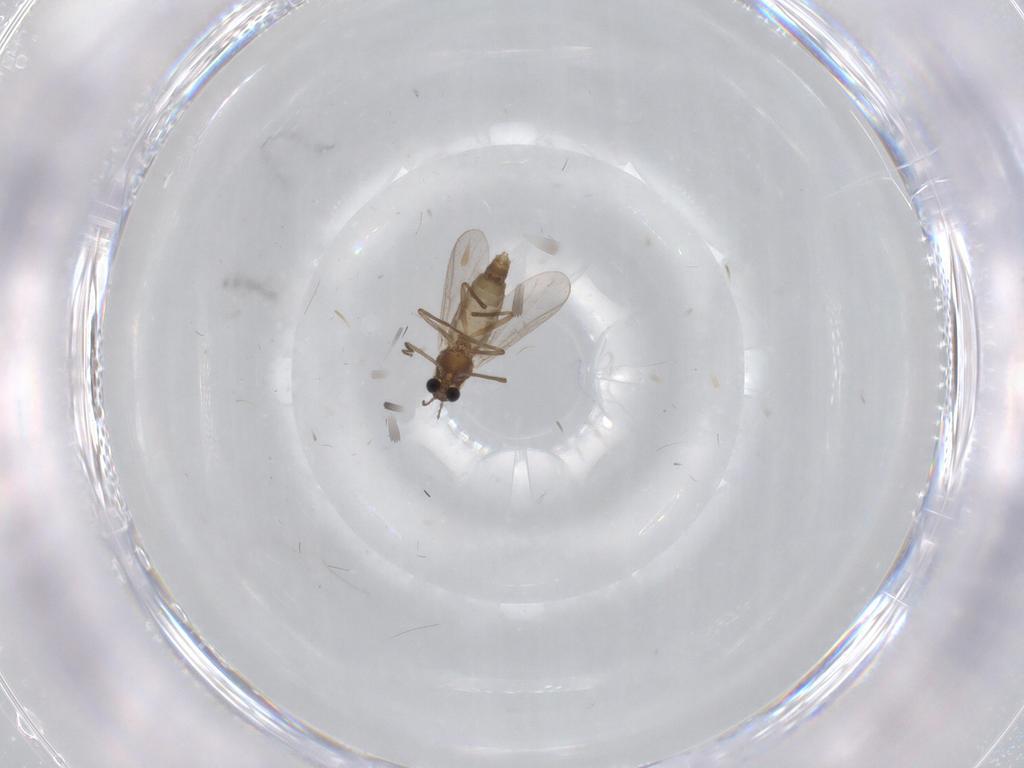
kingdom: Animalia
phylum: Arthropoda
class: Insecta
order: Diptera
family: Chironomidae
